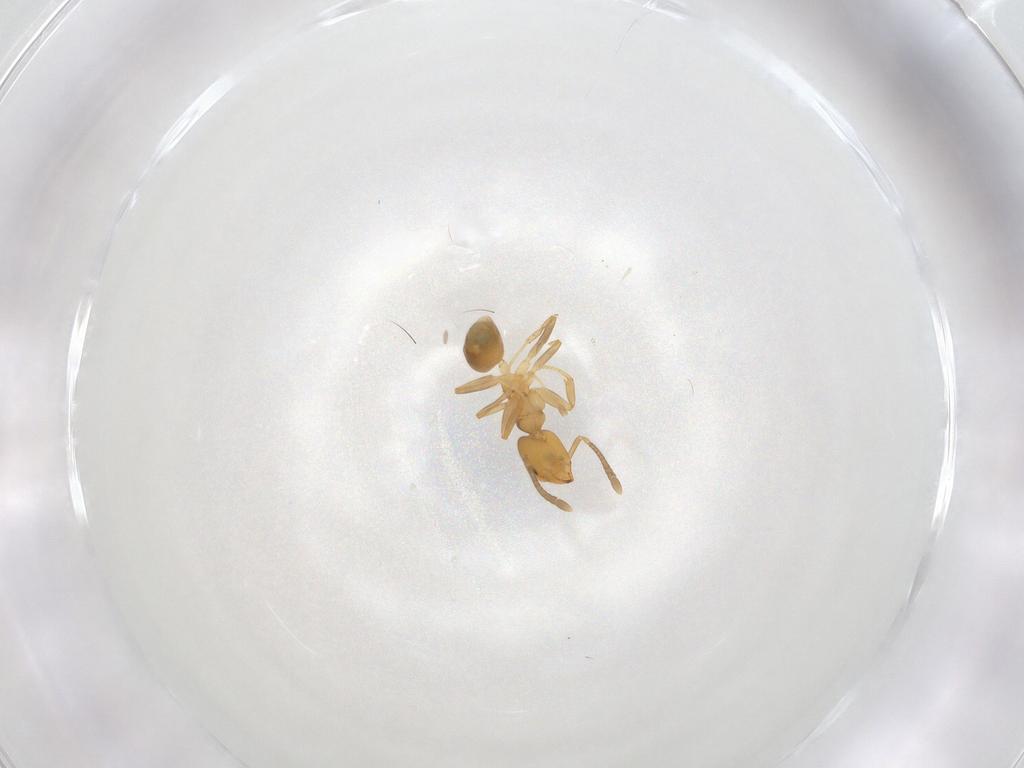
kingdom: Animalia
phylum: Arthropoda
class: Insecta
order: Hymenoptera
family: Formicidae
